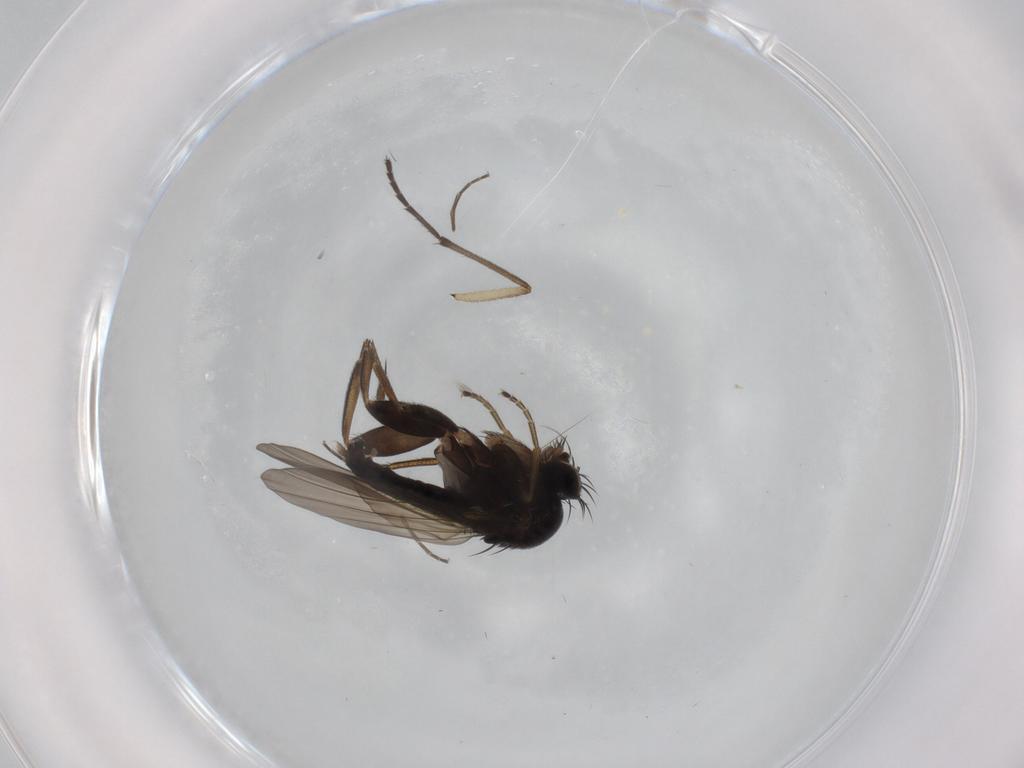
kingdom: Animalia
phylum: Arthropoda
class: Insecta
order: Diptera
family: Phoridae
